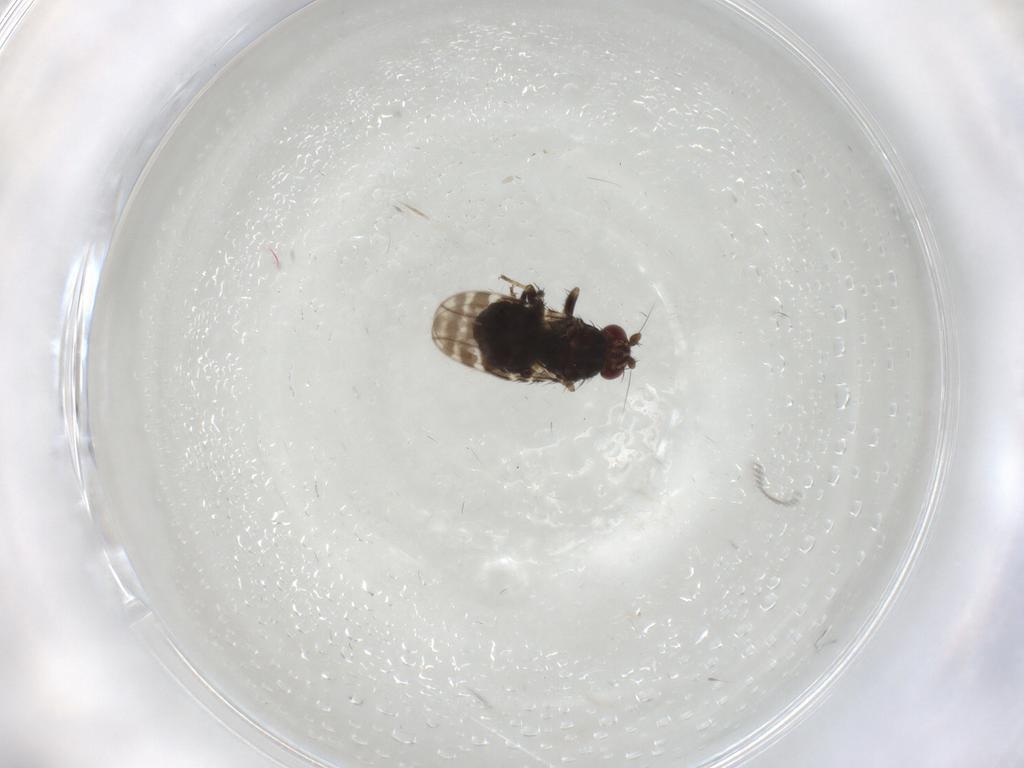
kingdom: Animalia
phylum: Arthropoda
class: Insecta
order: Diptera
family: Sphaeroceridae
